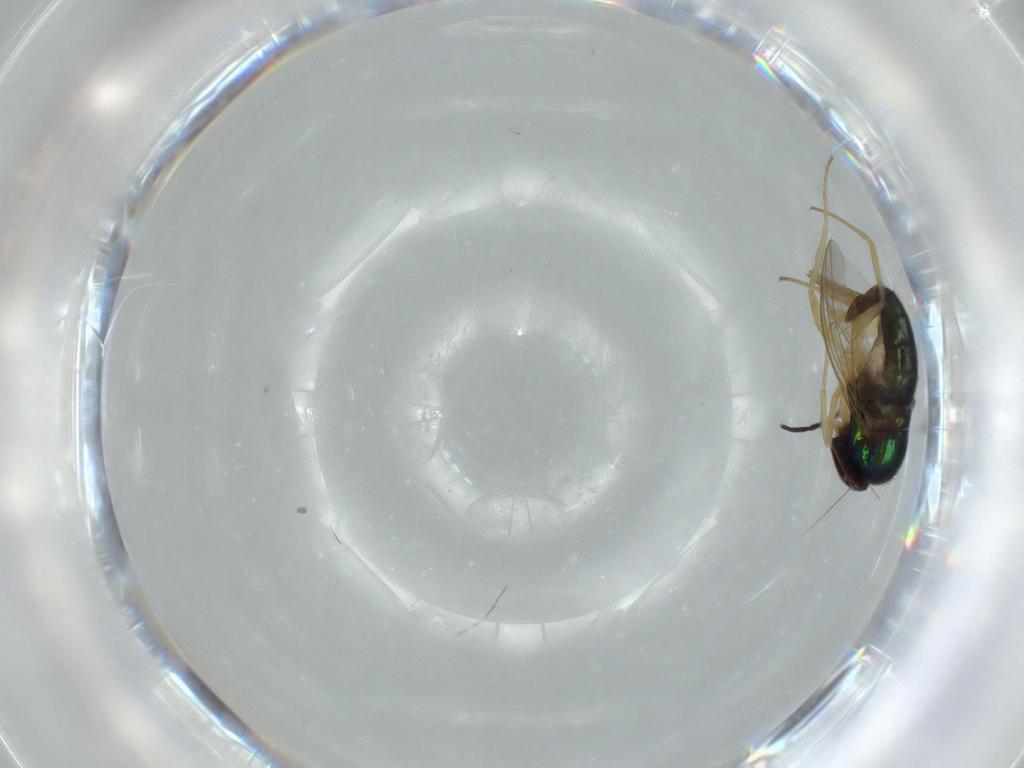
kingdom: Animalia
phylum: Arthropoda
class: Insecta
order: Diptera
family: Dolichopodidae
